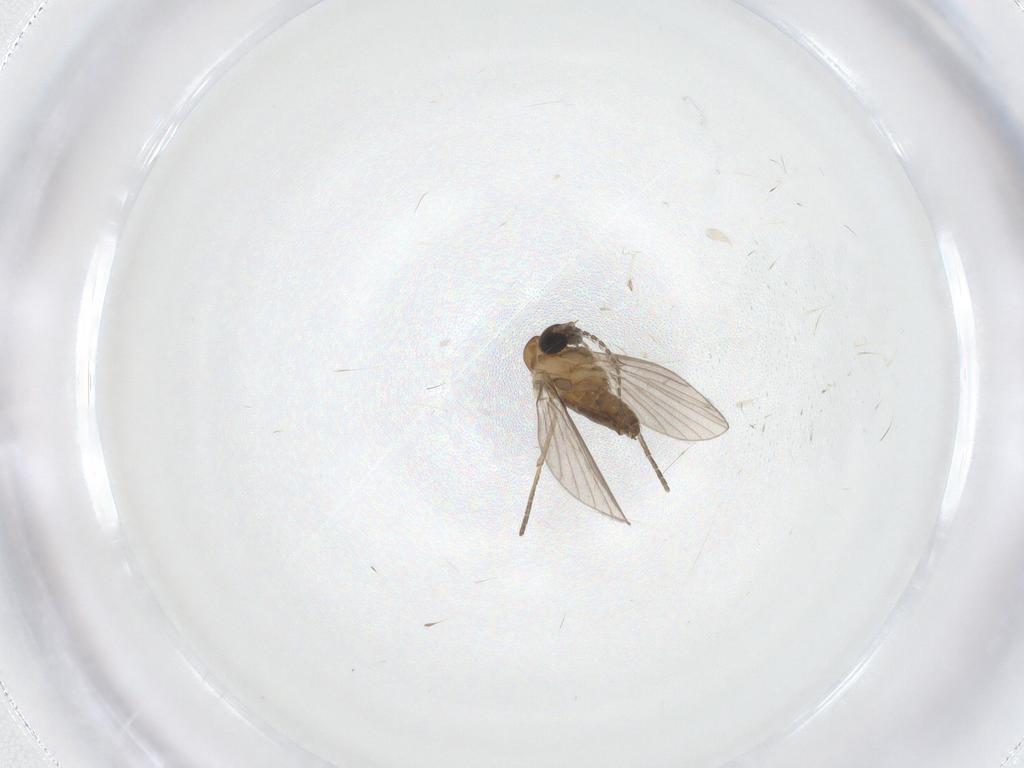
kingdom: Animalia
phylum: Arthropoda
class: Insecta
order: Diptera
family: Keroplatidae
